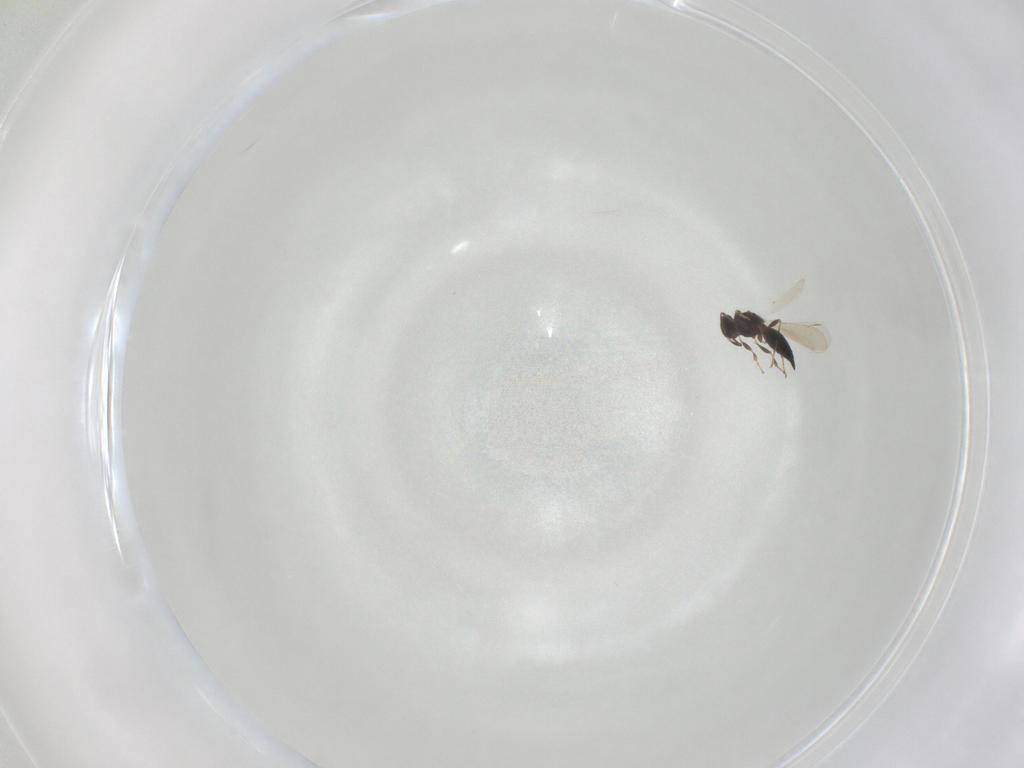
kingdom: Animalia
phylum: Arthropoda
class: Insecta
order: Hymenoptera
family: Platygastridae
